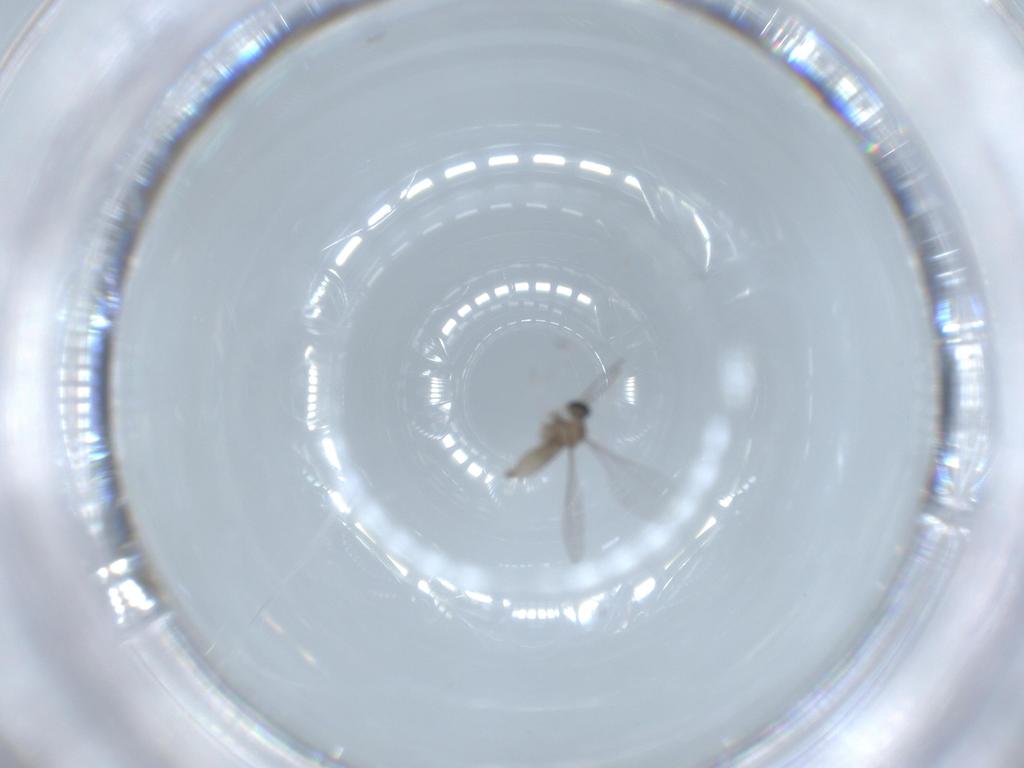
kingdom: Animalia
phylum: Arthropoda
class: Insecta
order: Diptera
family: Cecidomyiidae
